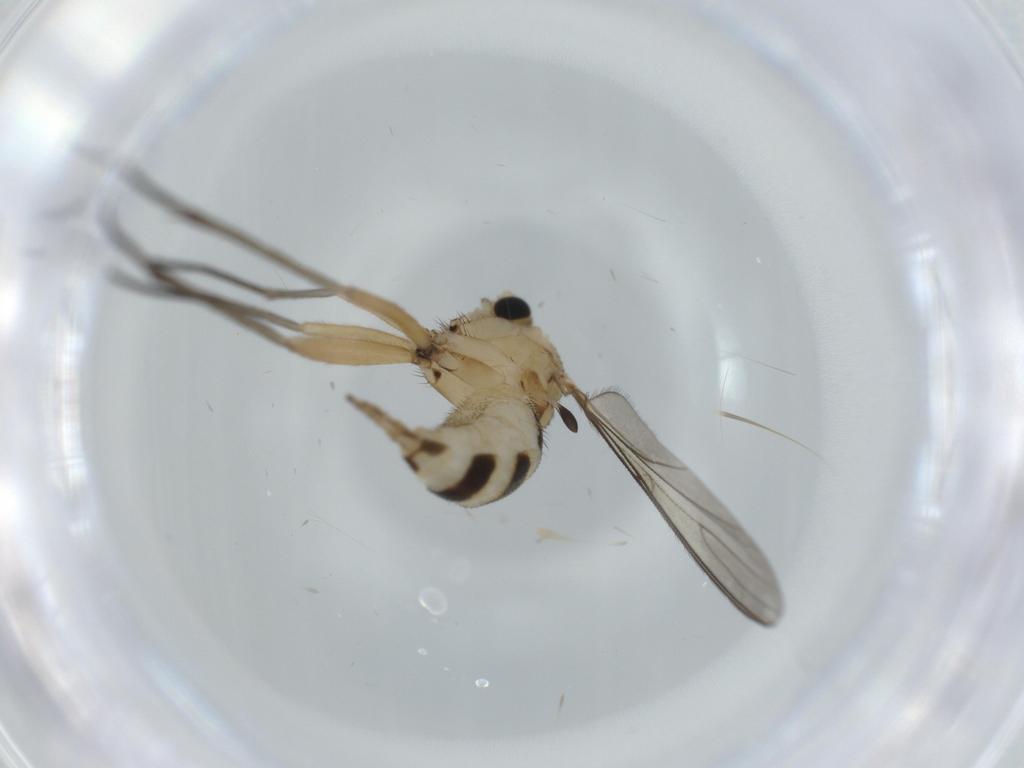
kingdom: Animalia
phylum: Arthropoda
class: Insecta
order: Diptera
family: Sciaridae
